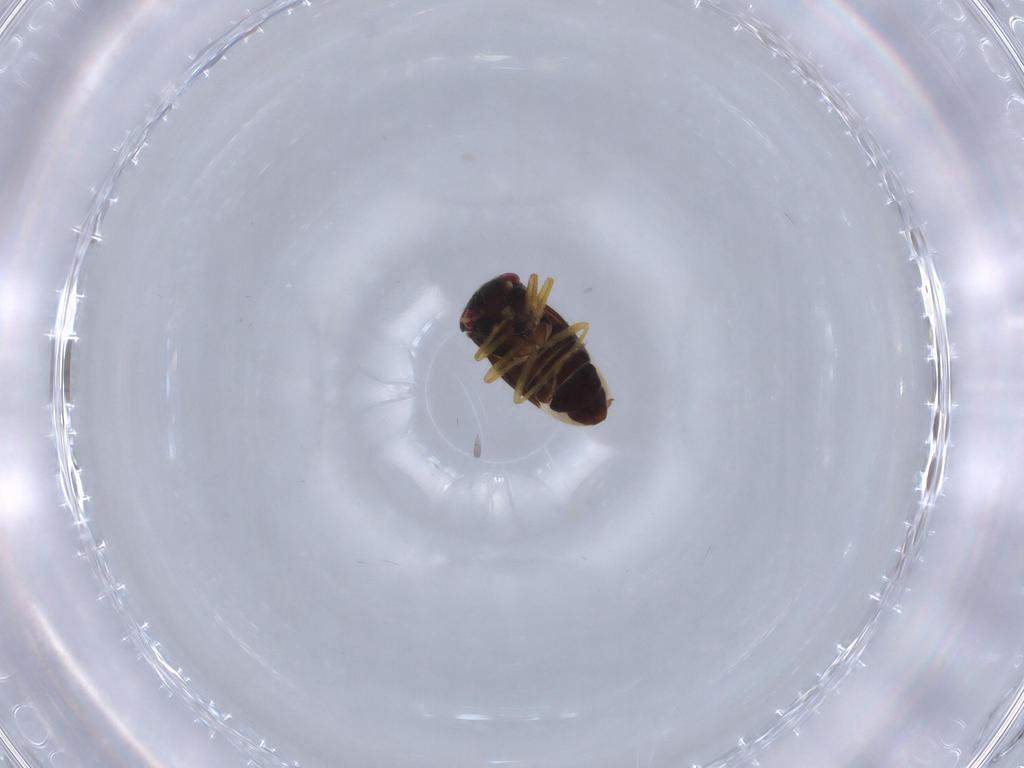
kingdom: Animalia
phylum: Arthropoda
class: Insecta
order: Hemiptera
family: Schizopteridae
